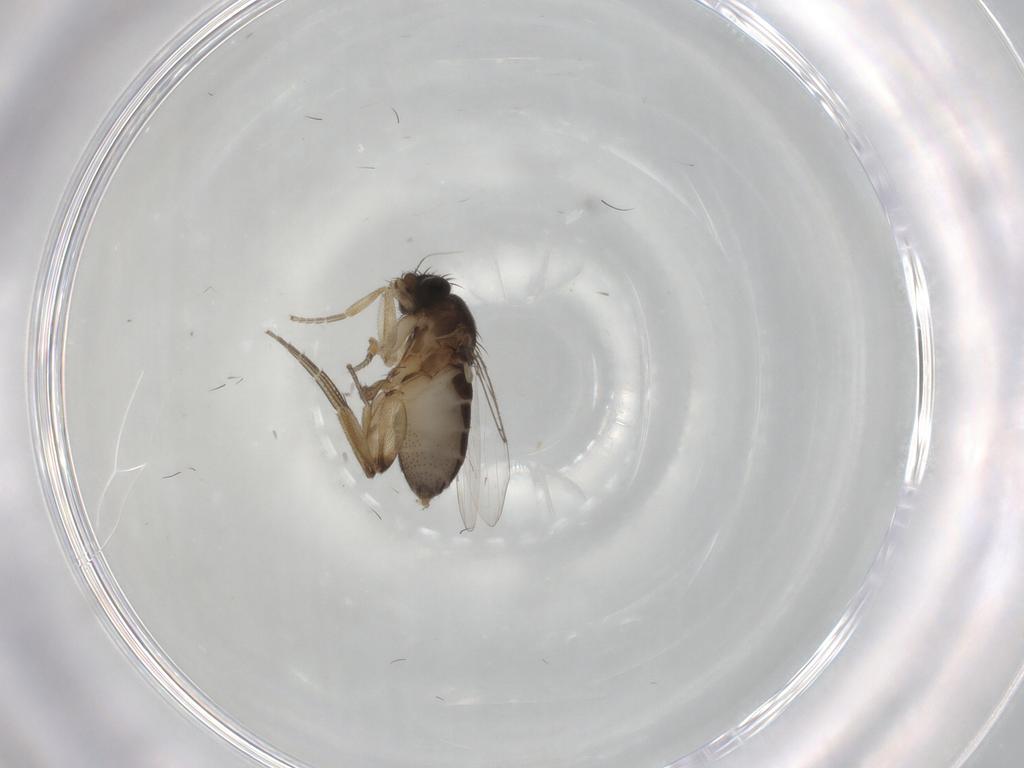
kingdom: Animalia
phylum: Arthropoda
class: Insecta
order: Diptera
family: Phoridae
